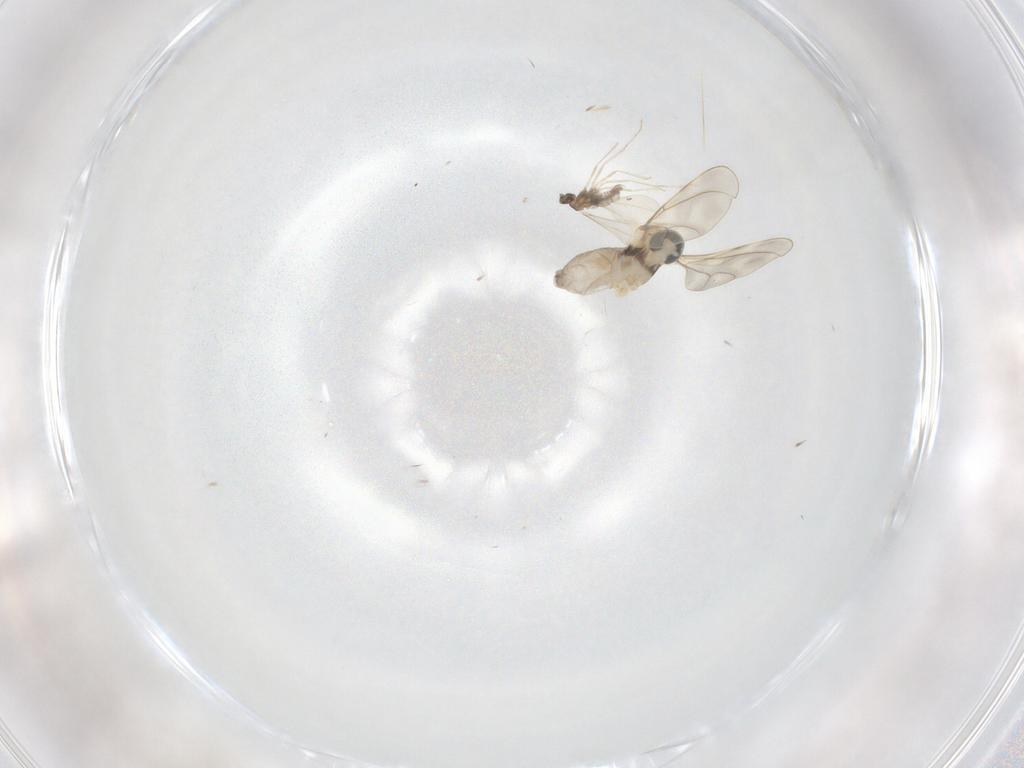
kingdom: Animalia
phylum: Arthropoda
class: Insecta
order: Diptera
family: Cecidomyiidae
